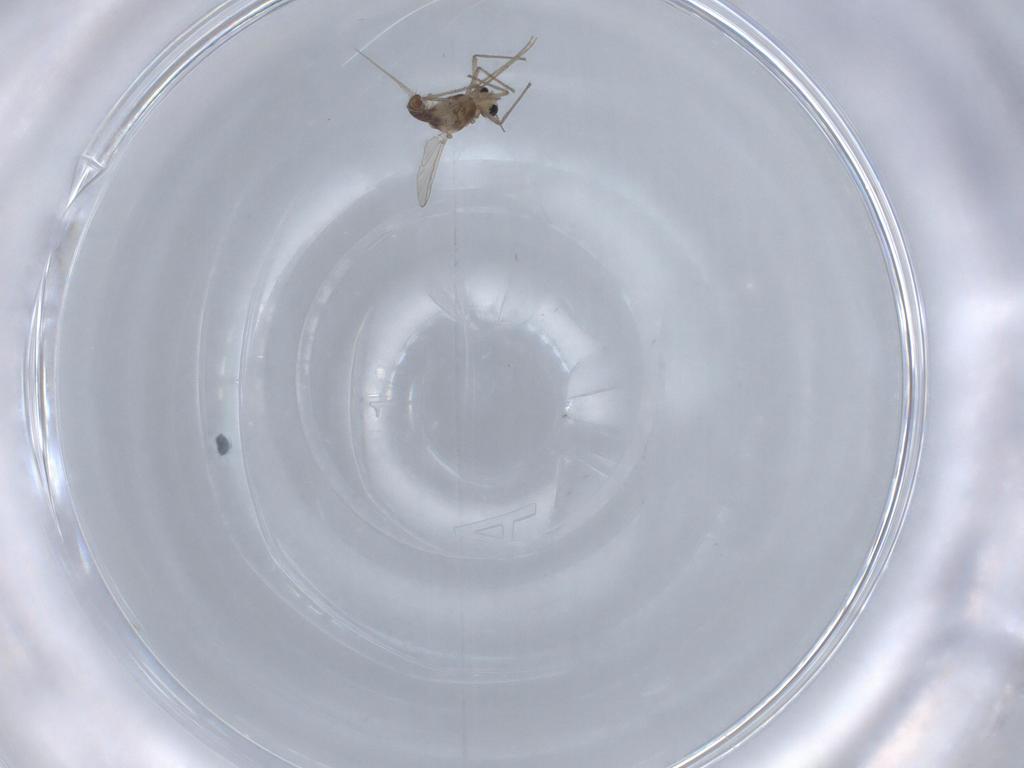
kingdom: Animalia
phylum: Arthropoda
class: Insecta
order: Diptera
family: Chironomidae
